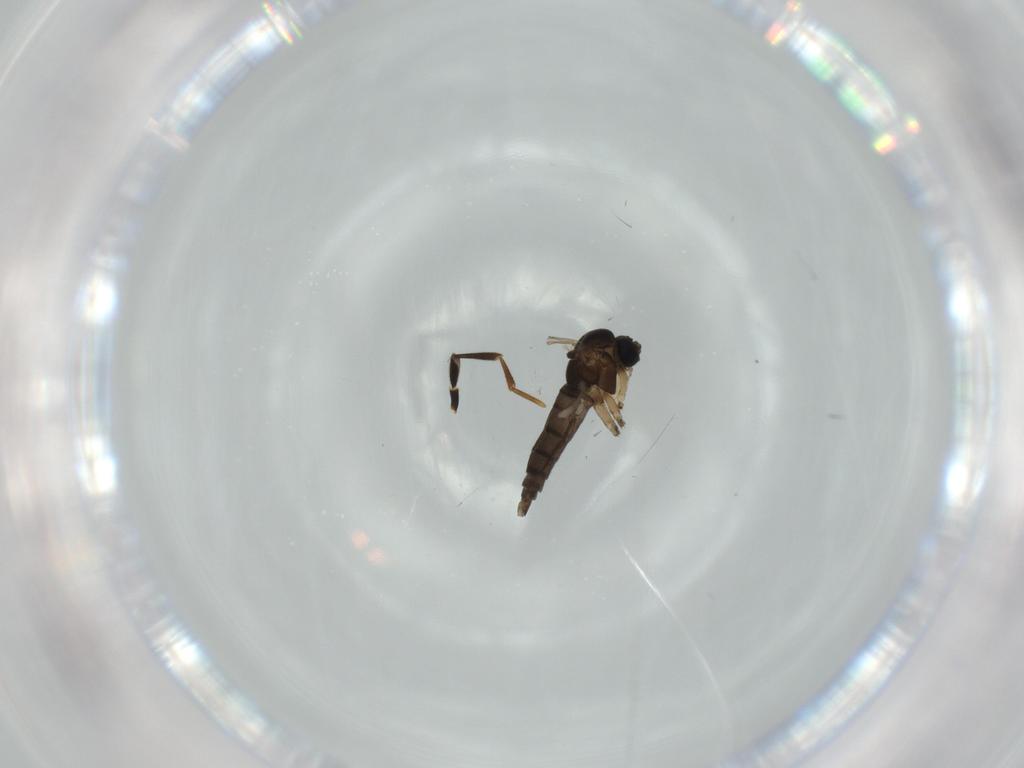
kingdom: Animalia
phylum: Arthropoda
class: Insecta
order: Diptera
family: Sciaridae
